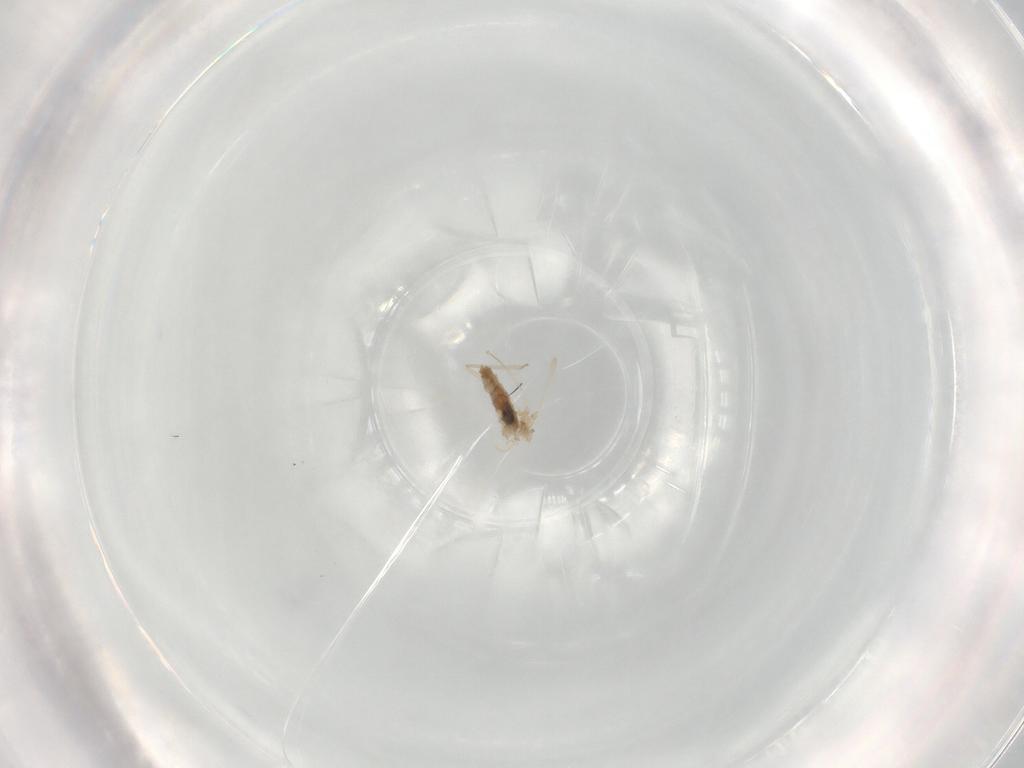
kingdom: Animalia
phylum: Arthropoda
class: Insecta
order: Diptera
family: Cecidomyiidae
